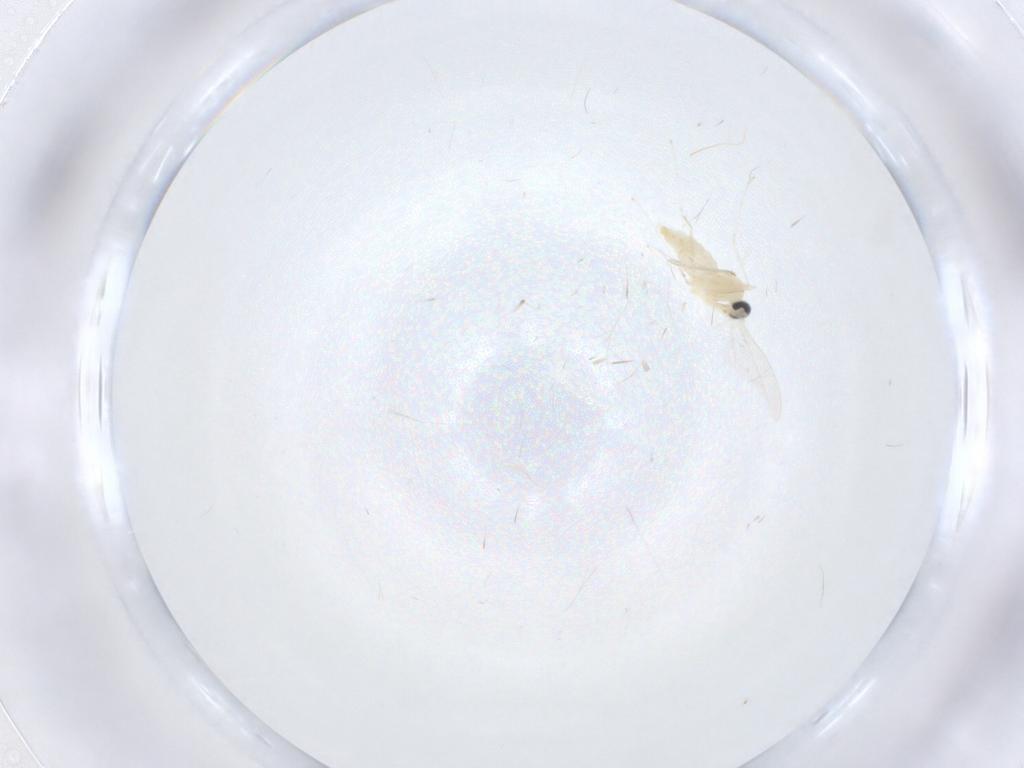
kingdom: Animalia
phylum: Arthropoda
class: Insecta
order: Diptera
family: Cecidomyiidae
